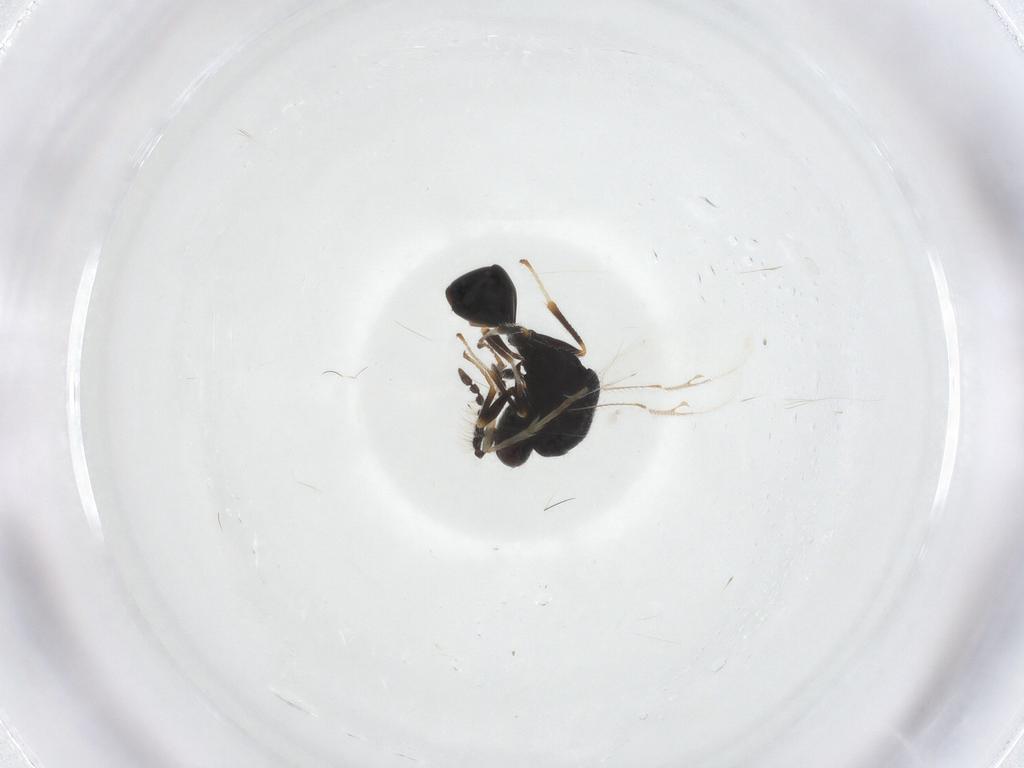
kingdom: Animalia
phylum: Arthropoda
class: Insecta
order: Hymenoptera
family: Eurytomidae
